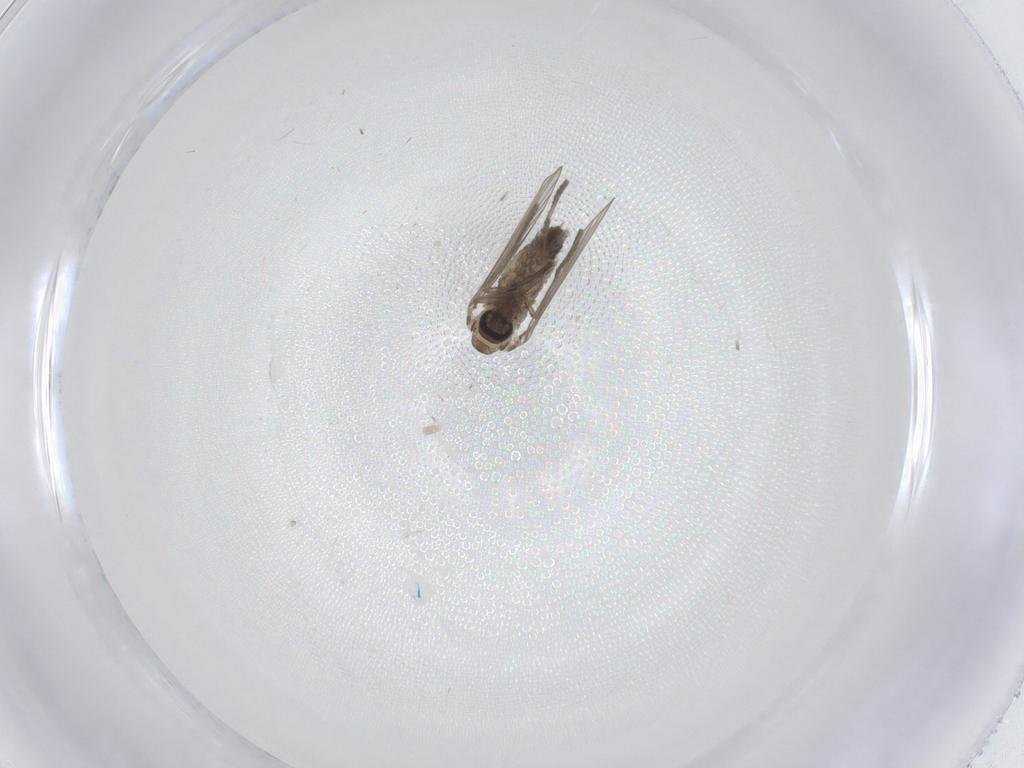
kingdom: Animalia
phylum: Arthropoda
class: Insecta
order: Diptera
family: Psychodidae
